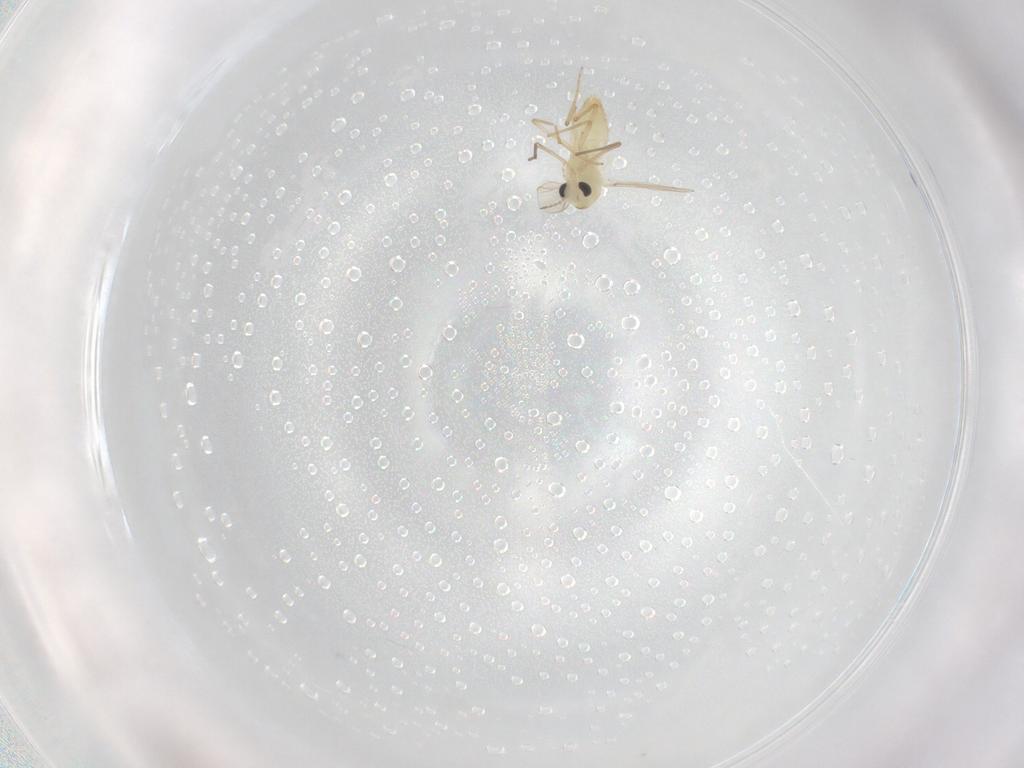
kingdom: Animalia
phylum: Arthropoda
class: Insecta
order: Diptera
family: Chironomidae
